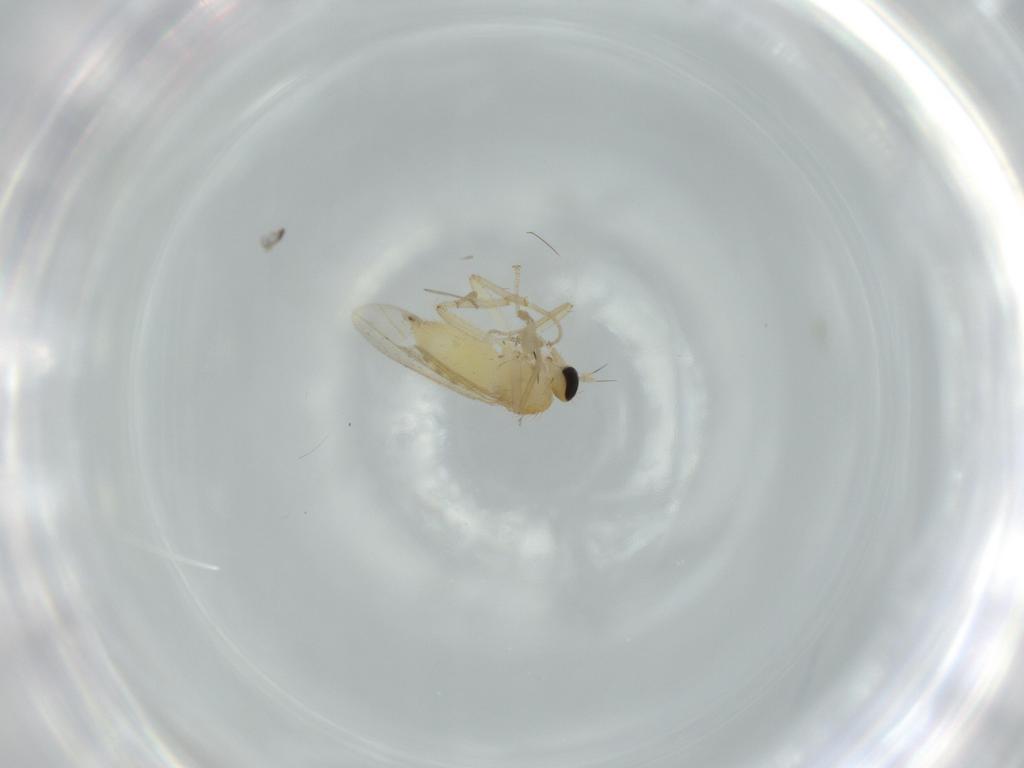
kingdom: Animalia
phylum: Arthropoda
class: Insecta
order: Diptera
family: Hybotidae
